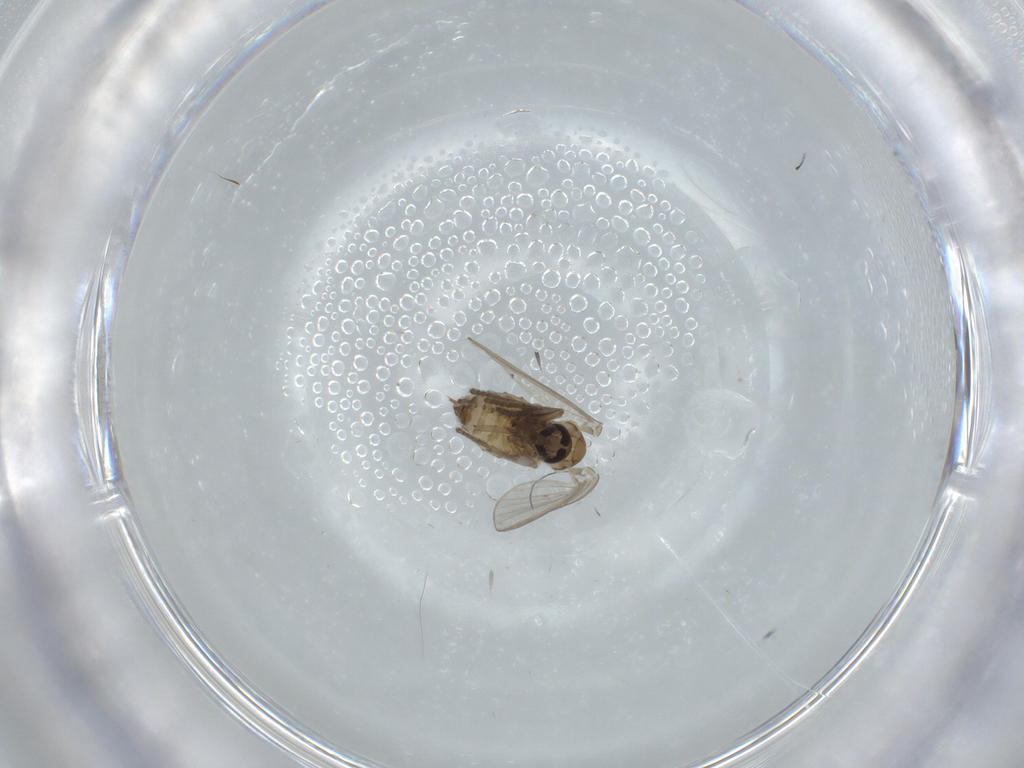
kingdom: Animalia
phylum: Arthropoda
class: Insecta
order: Diptera
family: Psychodidae
